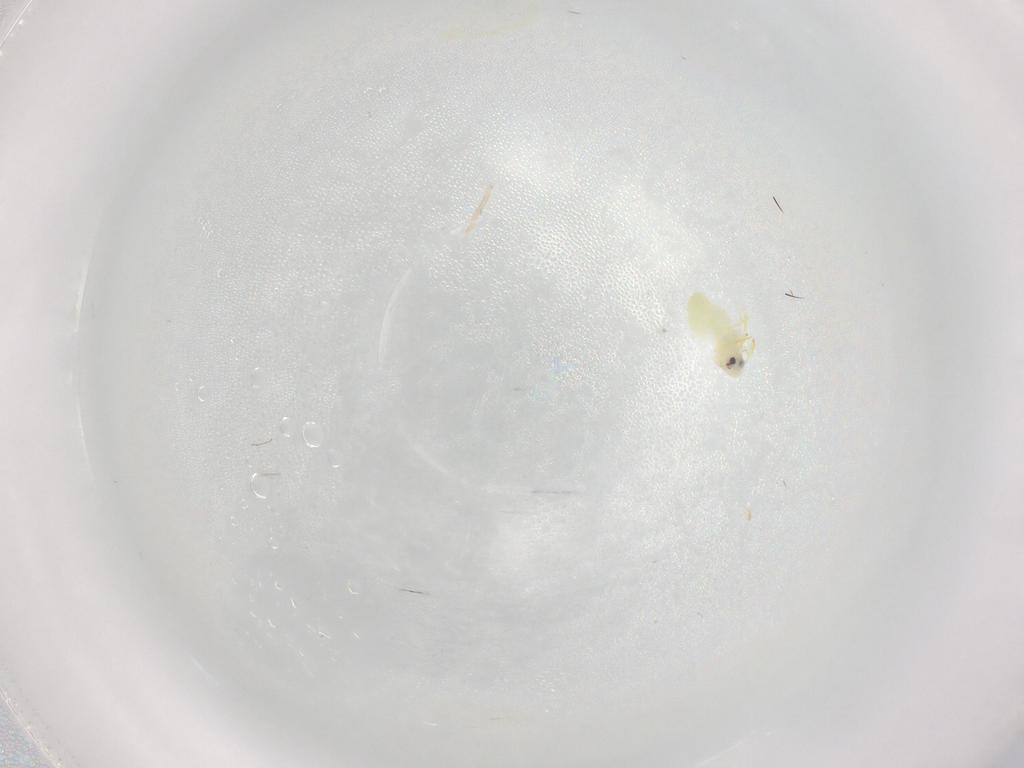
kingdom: Animalia
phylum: Arthropoda
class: Insecta
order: Hemiptera
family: Aleyrodidae
